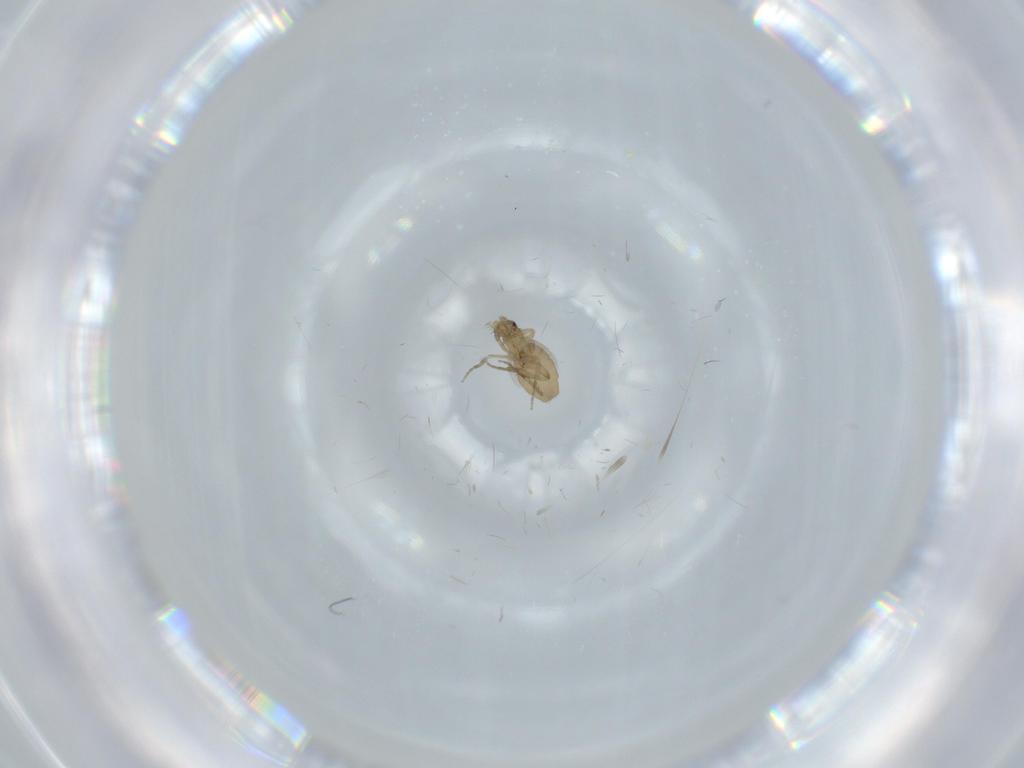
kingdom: Animalia
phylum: Arthropoda
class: Insecta
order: Diptera
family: Phoridae
